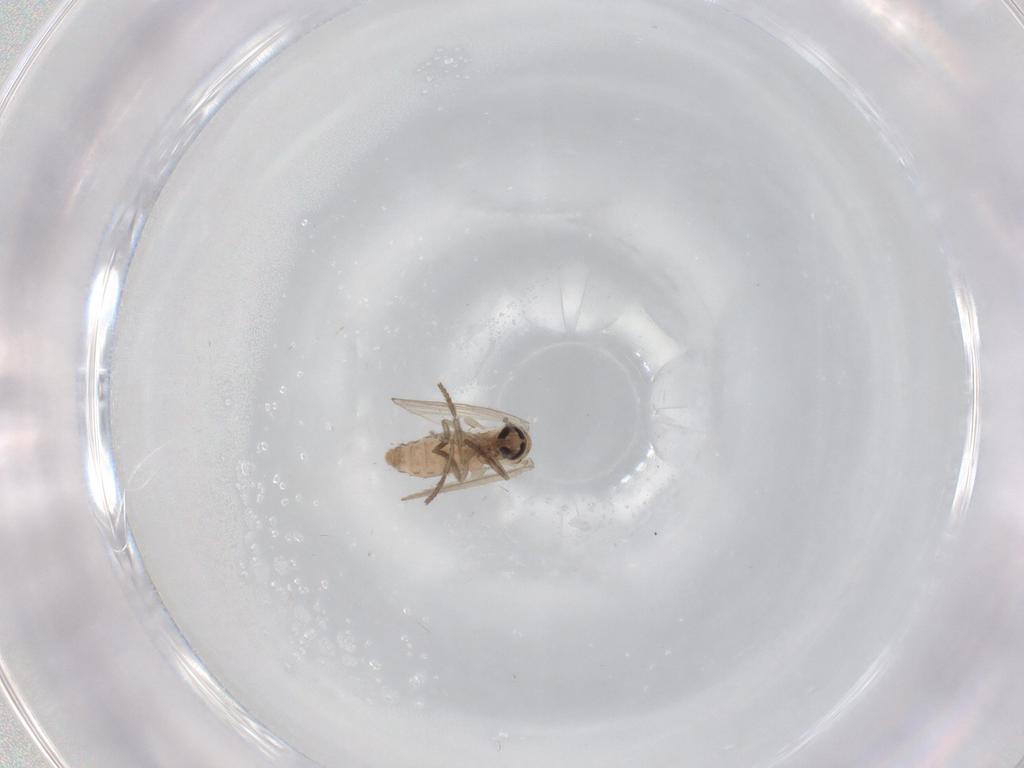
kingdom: Animalia
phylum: Arthropoda
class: Insecta
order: Diptera
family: Psychodidae
